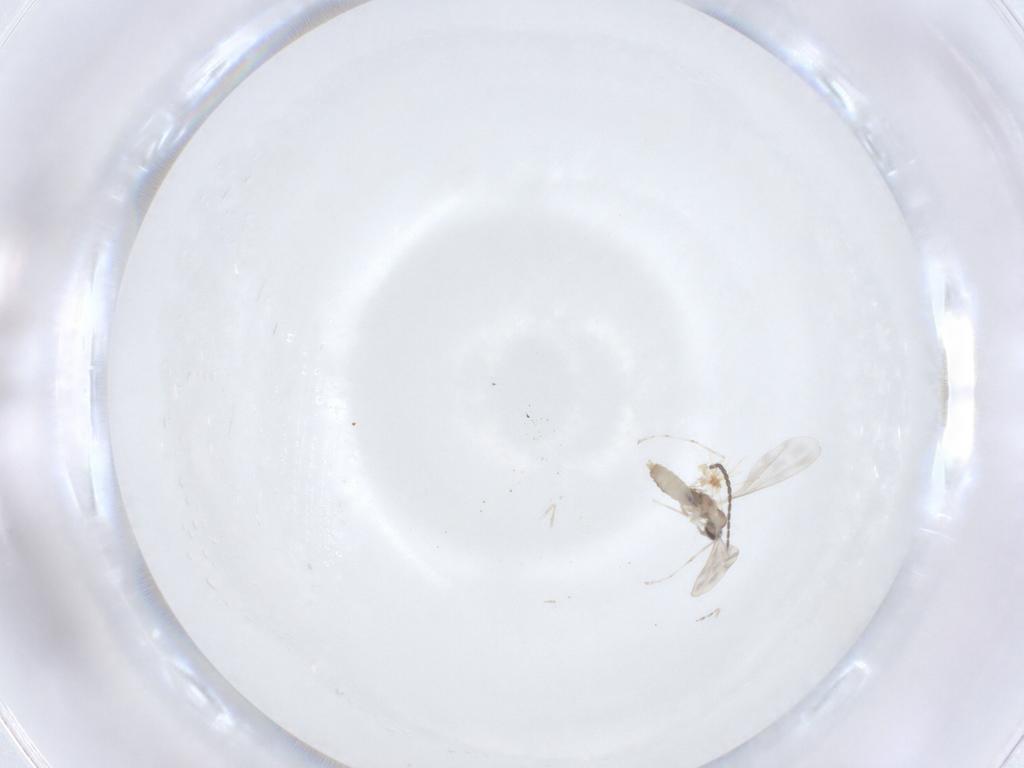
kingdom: Animalia
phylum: Arthropoda
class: Insecta
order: Diptera
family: Cecidomyiidae
